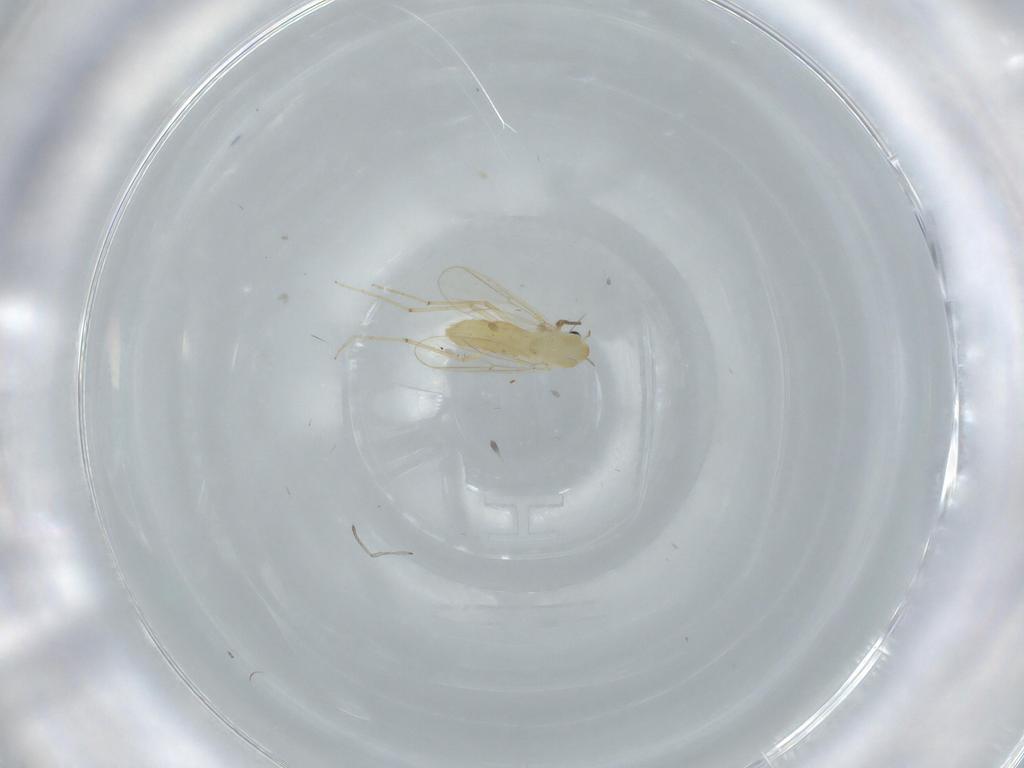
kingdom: Animalia
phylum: Arthropoda
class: Insecta
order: Diptera
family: Chironomidae
